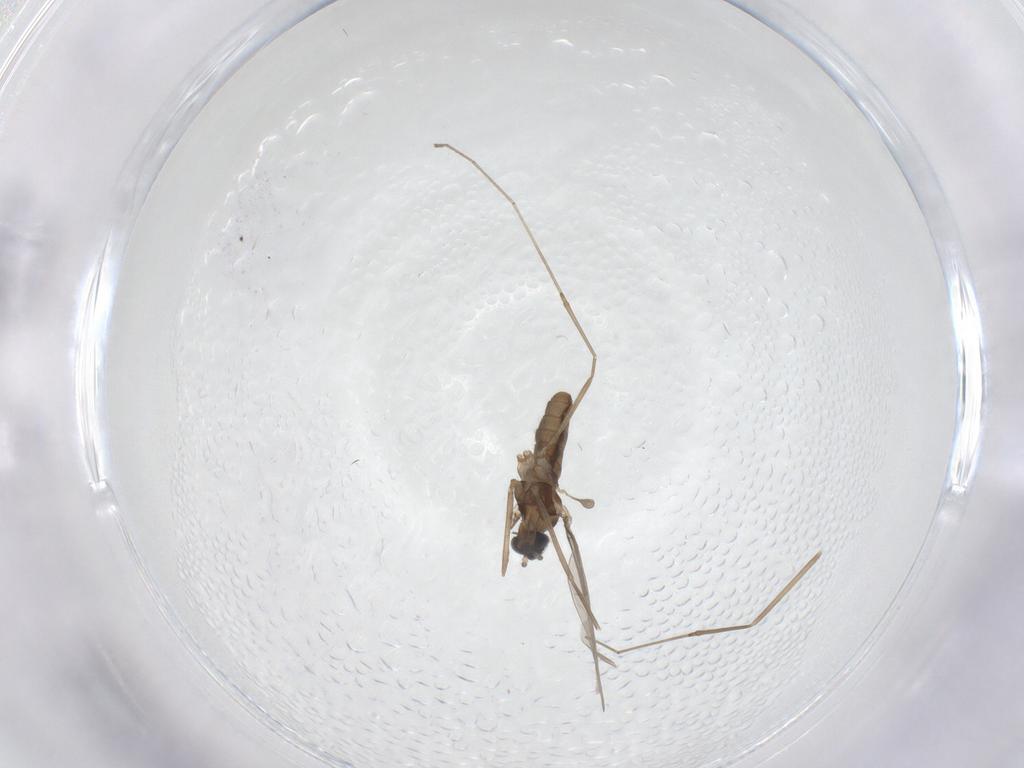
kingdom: Animalia
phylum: Arthropoda
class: Insecta
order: Diptera
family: Cecidomyiidae
